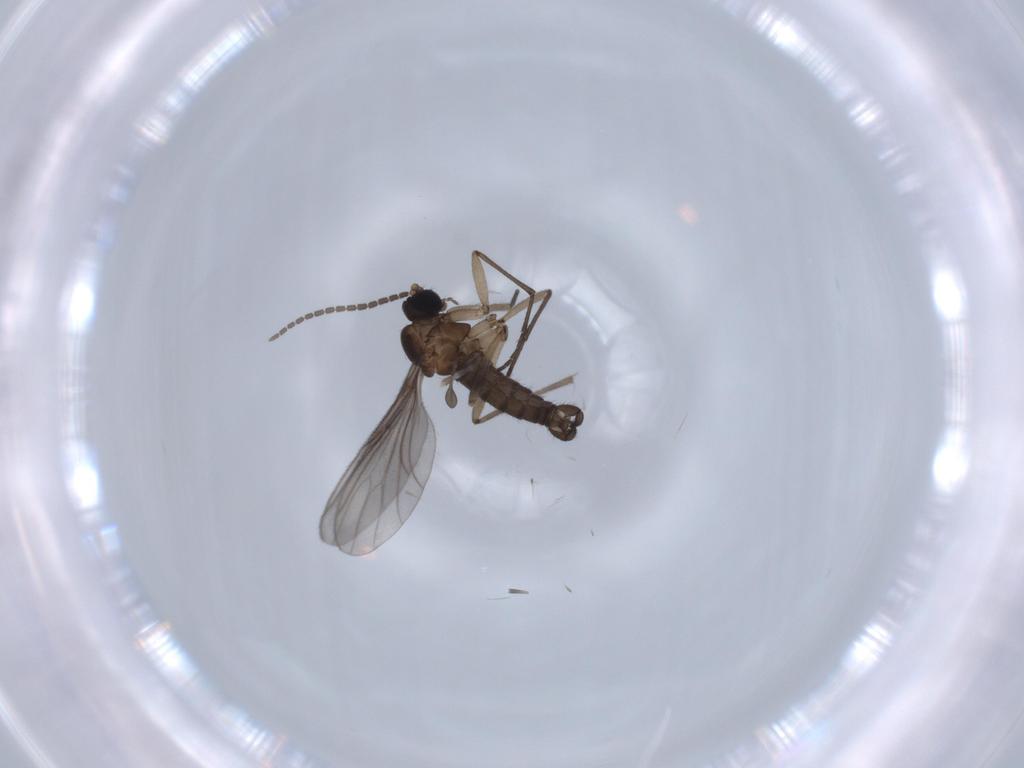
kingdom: Animalia
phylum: Arthropoda
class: Insecta
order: Diptera
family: Sciaridae
